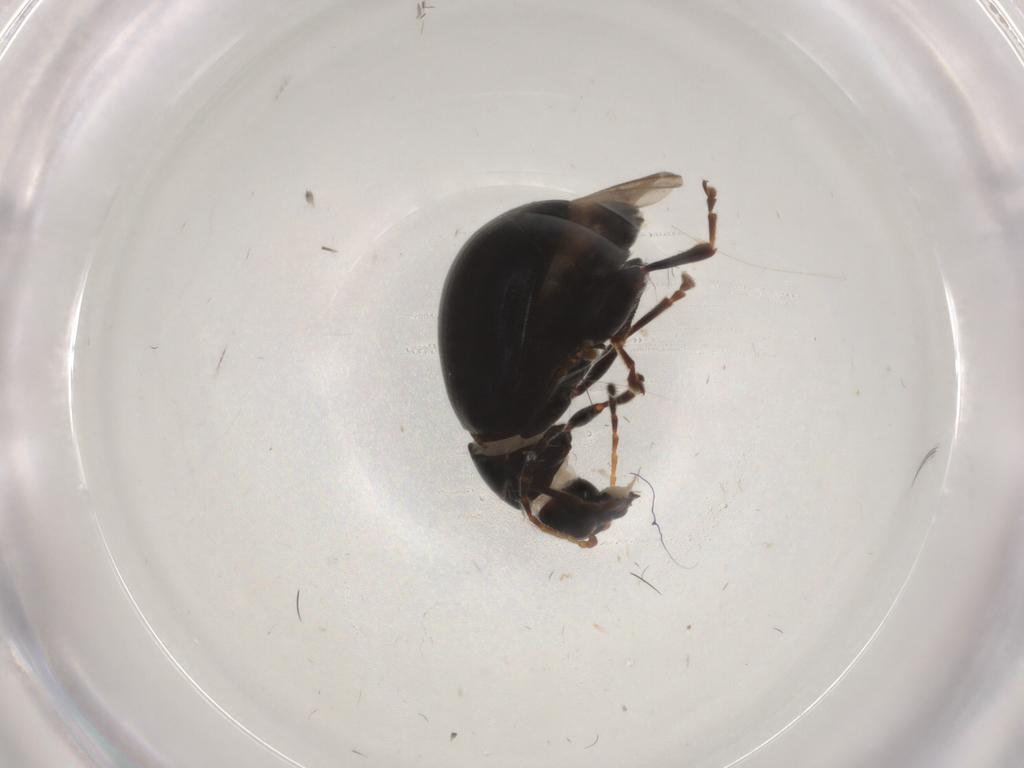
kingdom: Animalia
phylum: Arthropoda
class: Insecta
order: Coleoptera
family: Chrysomelidae
